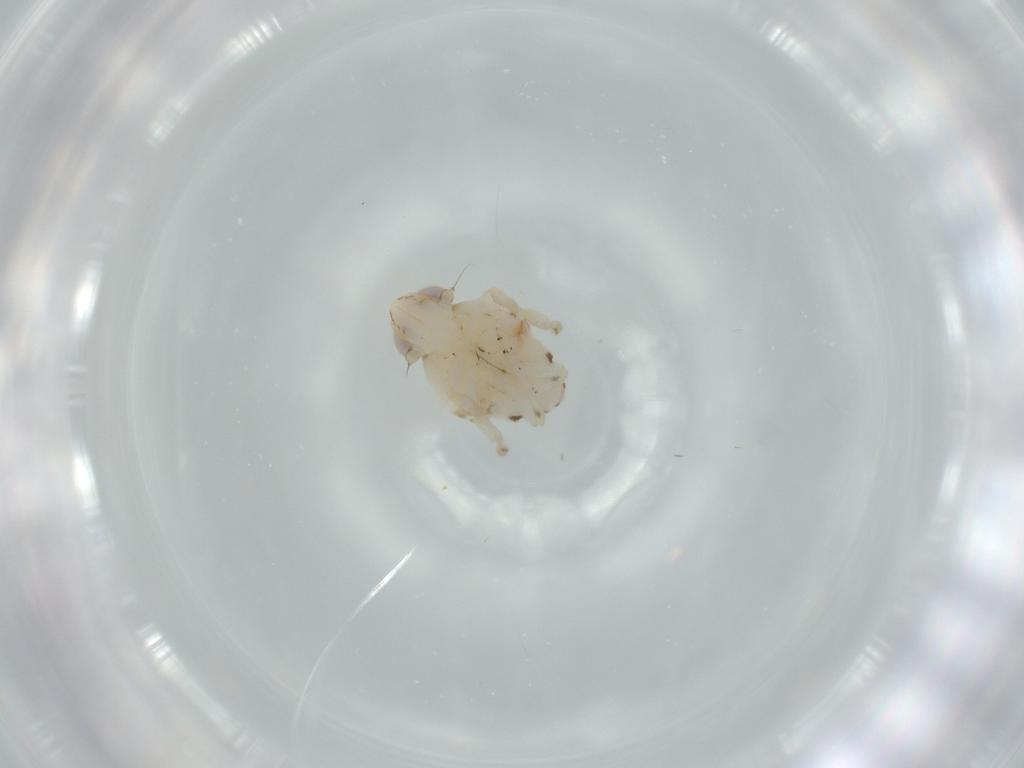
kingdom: Animalia
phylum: Arthropoda
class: Insecta
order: Hemiptera
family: Nogodinidae
